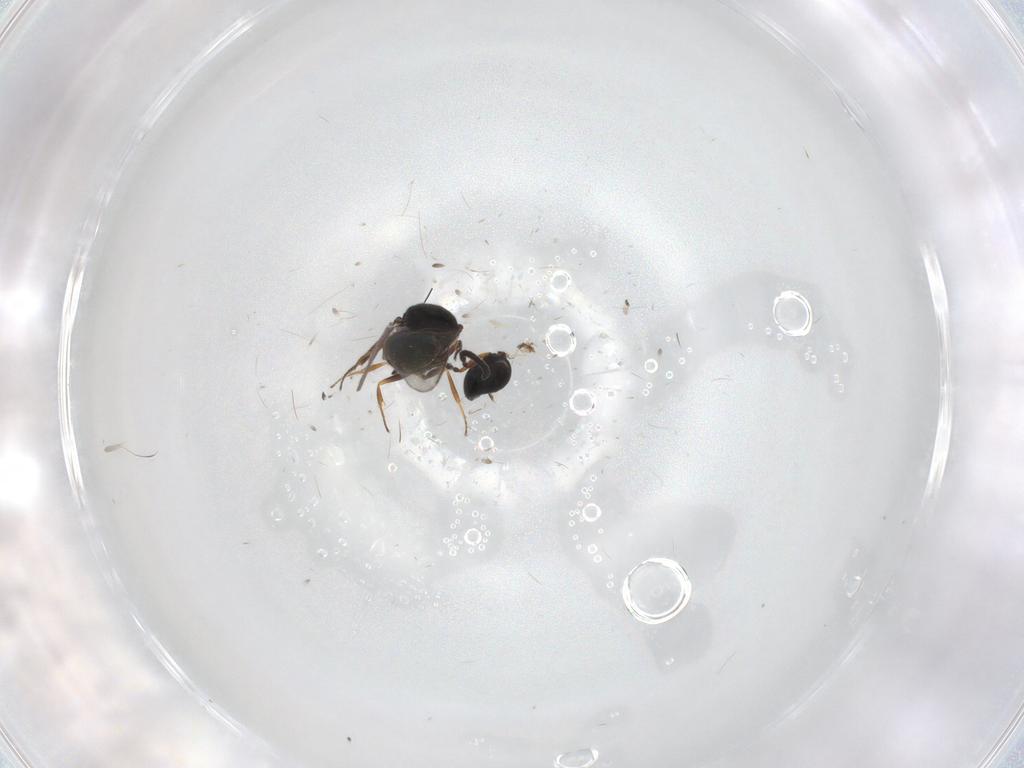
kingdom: Animalia
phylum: Arthropoda
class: Insecta
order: Hymenoptera
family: Scelionidae
